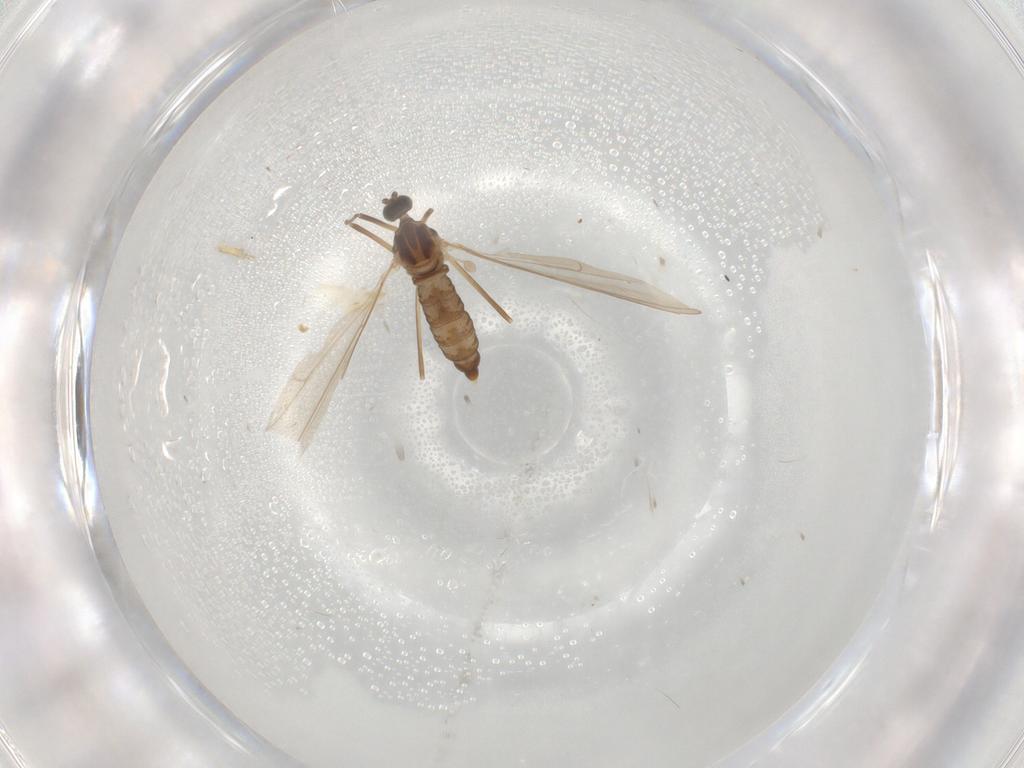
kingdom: Animalia
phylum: Arthropoda
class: Insecta
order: Diptera
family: Cecidomyiidae
